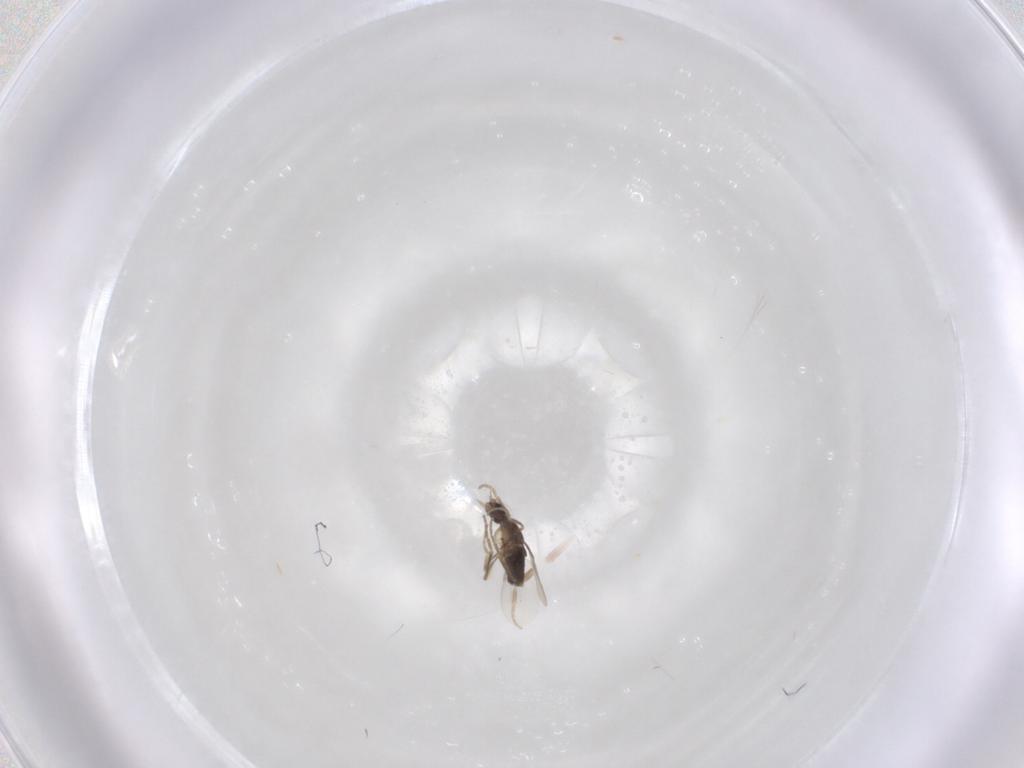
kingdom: Animalia
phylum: Arthropoda
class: Insecta
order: Diptera
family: Phoridae
